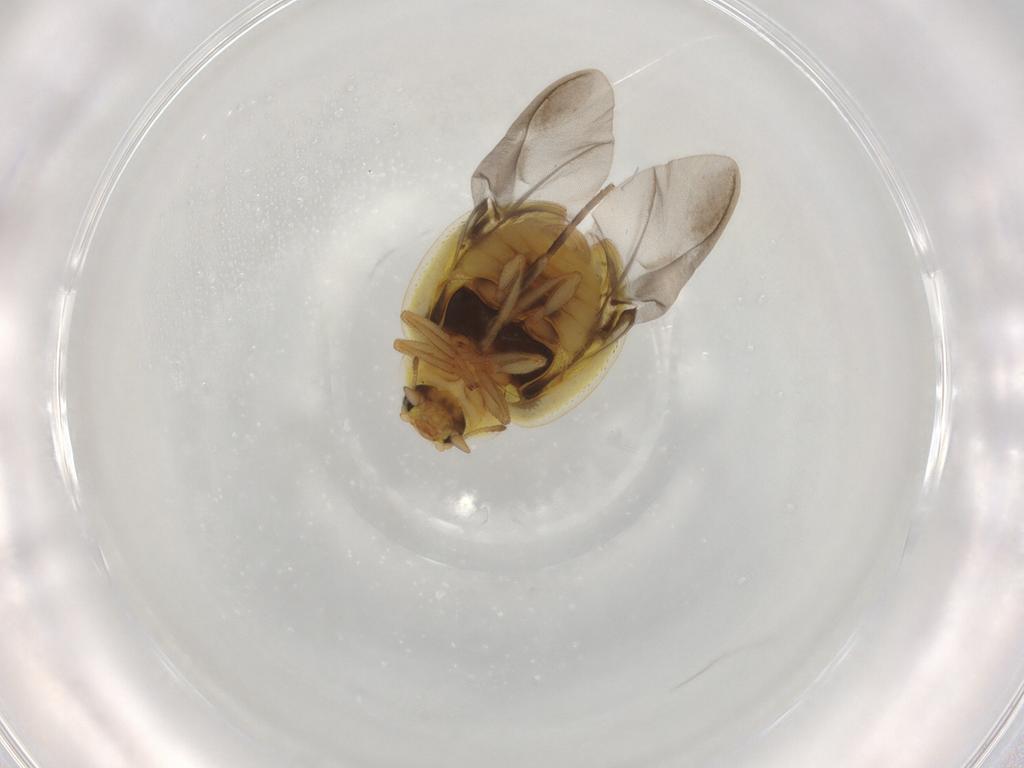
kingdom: Animalia
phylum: Arthropoda
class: Insecta
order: Coleoptera
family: Coccinellidae
